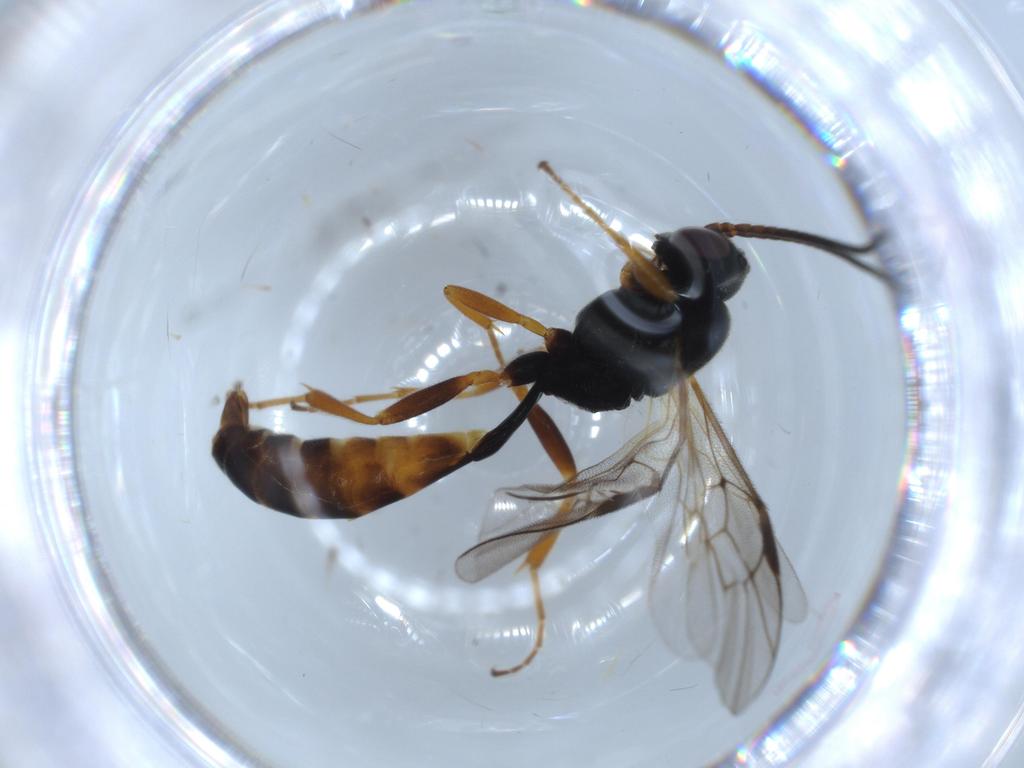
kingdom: Animalia
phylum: Arthropoda
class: Insecta
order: Hymenoptera
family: Ichneumonidae
